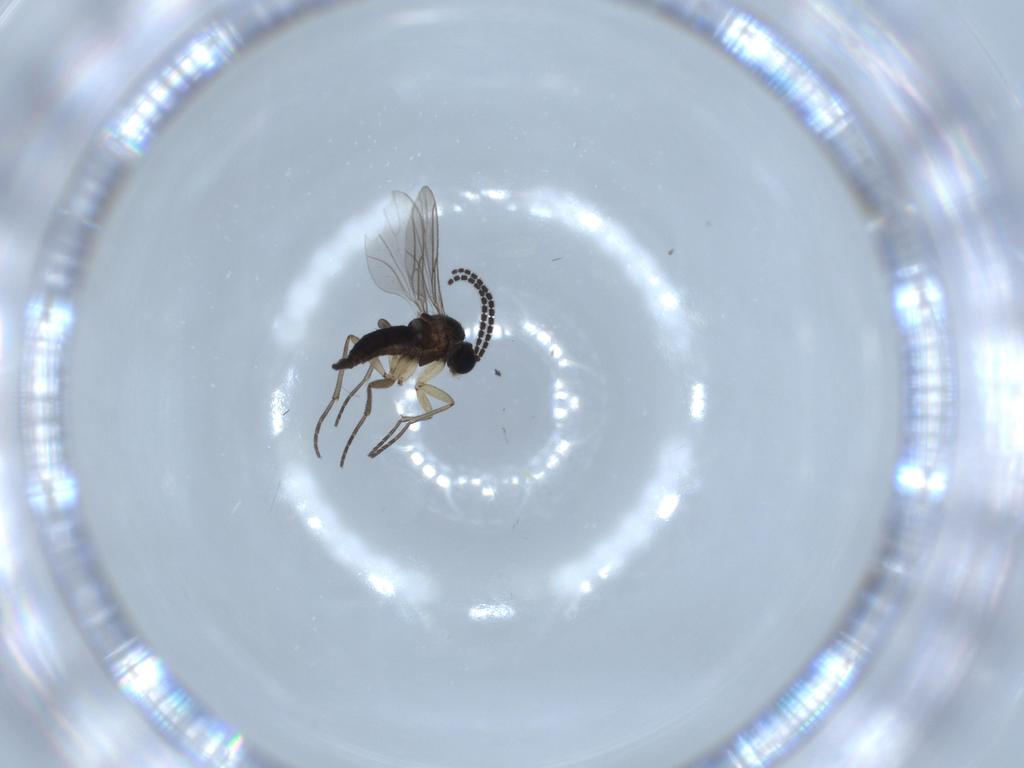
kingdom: Animalia
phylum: Arthropoda
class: Insecta
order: Diptera
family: Sciaridae
